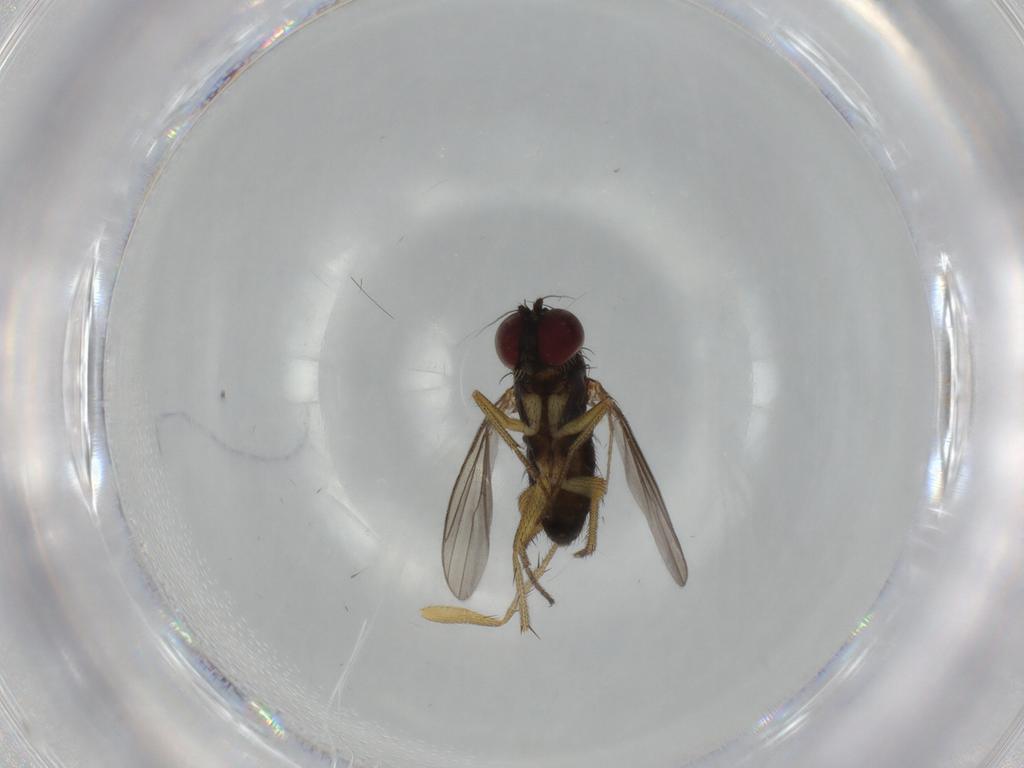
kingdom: Animalia
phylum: Arthropoda
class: Insecta
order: Diptera
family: Dolichopodidae
